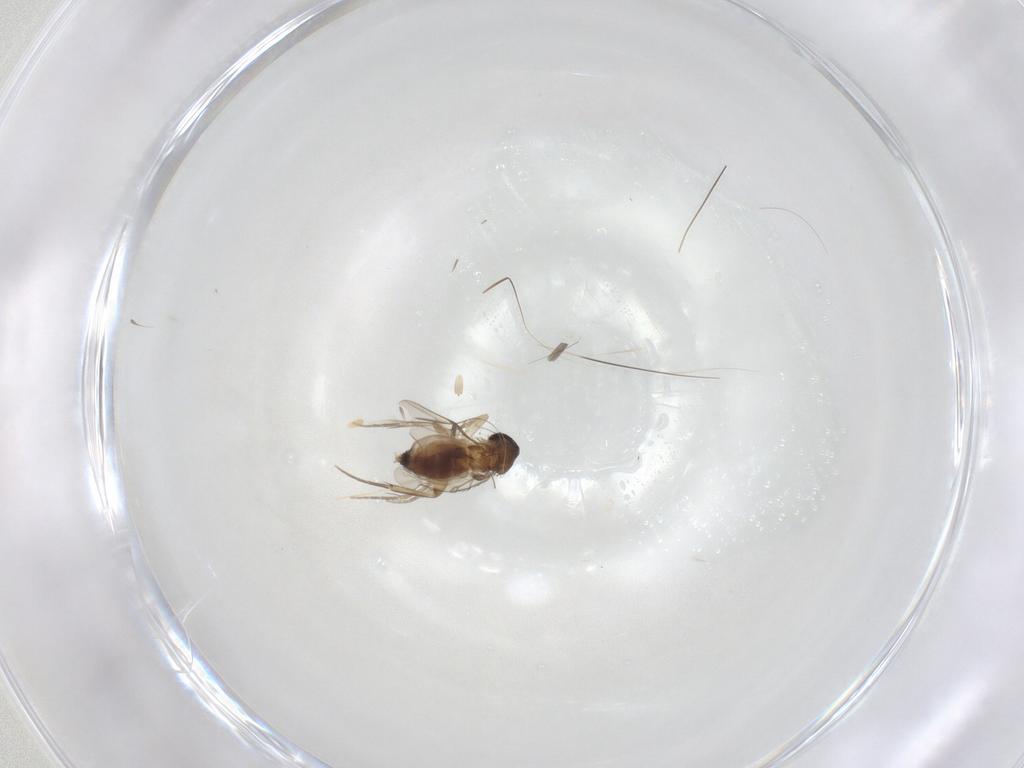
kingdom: Animalia
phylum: Arthropoda
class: Insecta
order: Diptera
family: Phoridae
